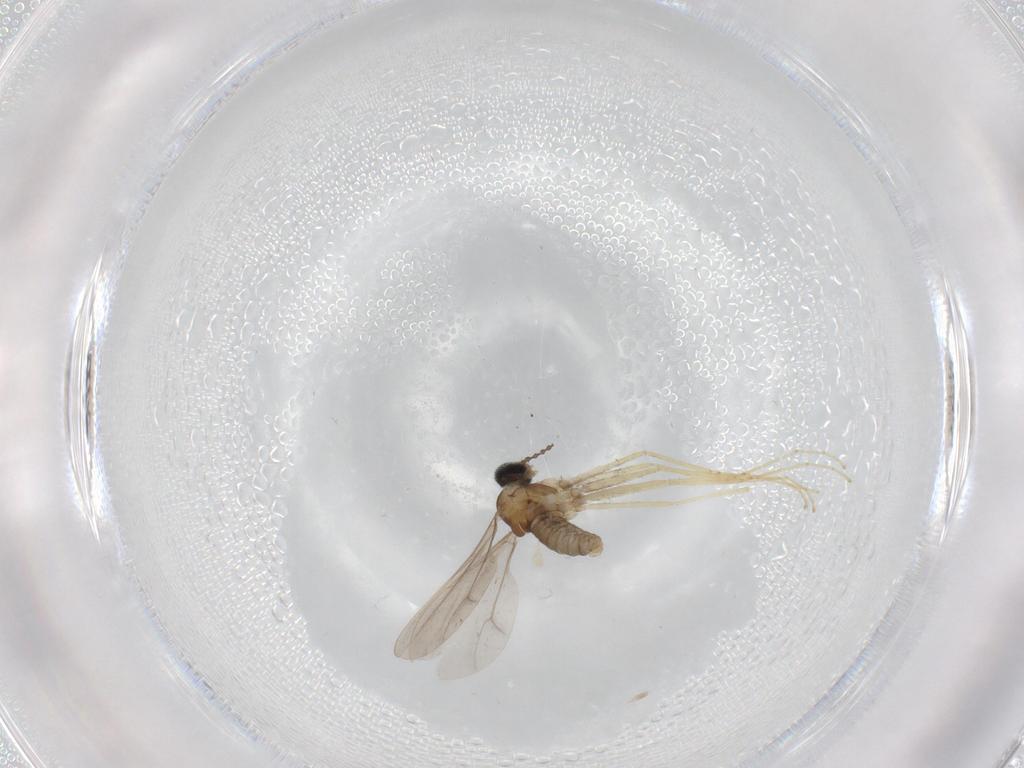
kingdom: Animalia
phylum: Arthropoda
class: Insecta
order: Diptera
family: Cecidomyiidae
